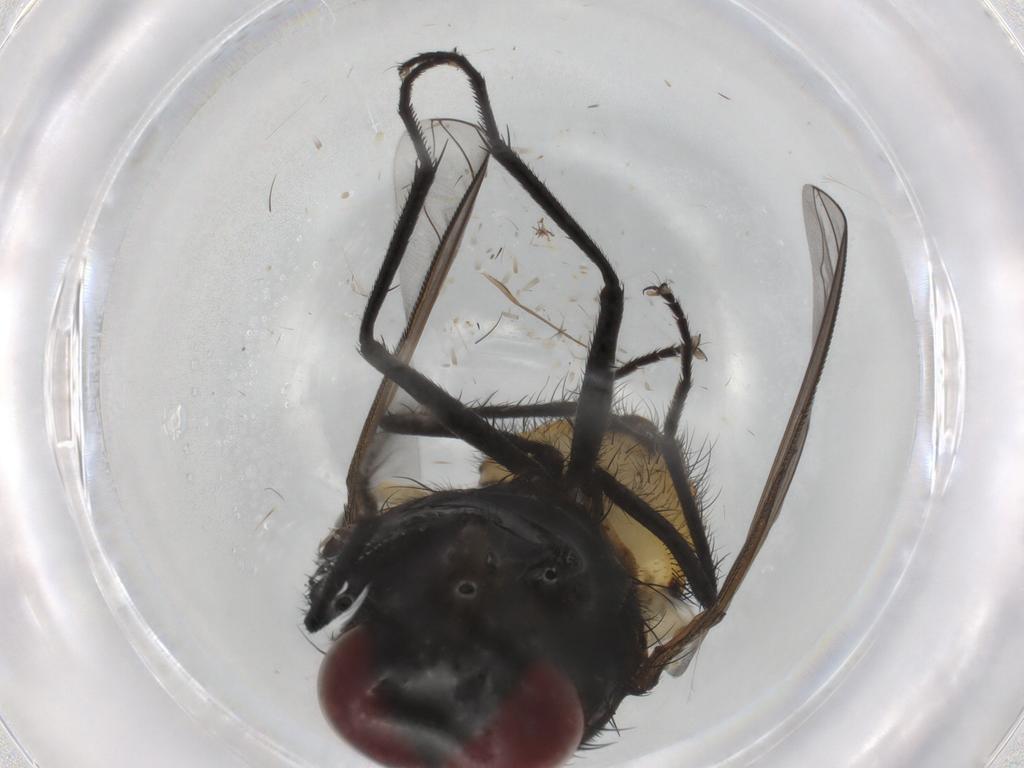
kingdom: Animalia
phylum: Arthropoda
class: Insecta
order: Diptera
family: Muscidae
